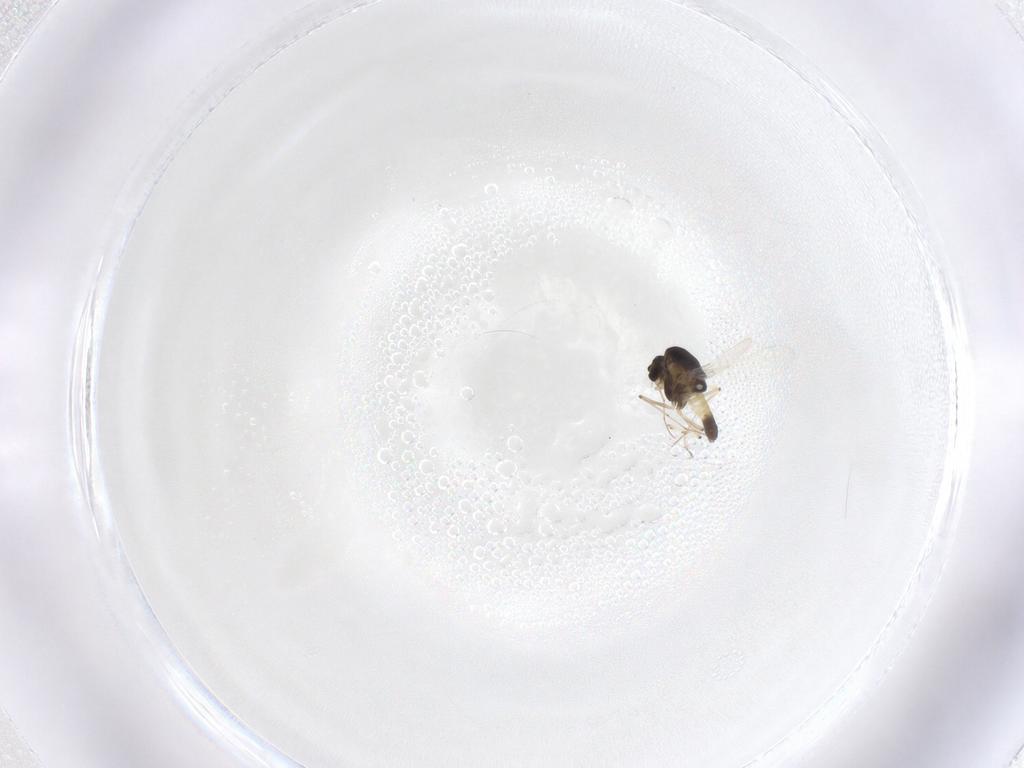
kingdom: Animalia
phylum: Arthropoda
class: Insecta
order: Diptera
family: Chironomidae
